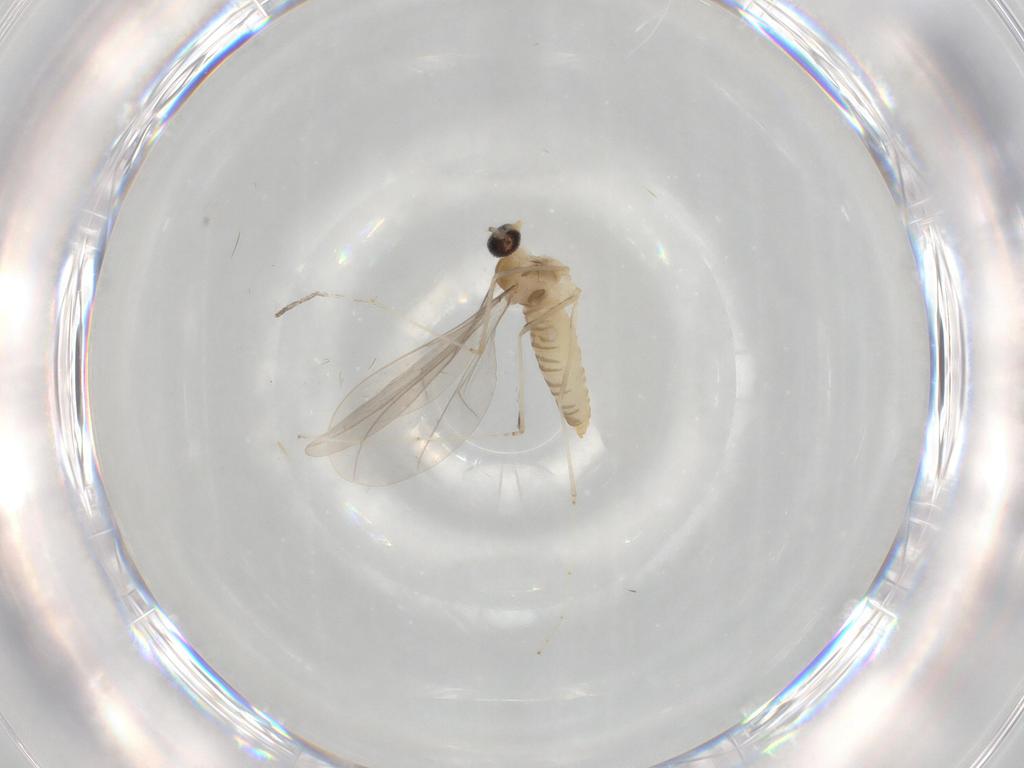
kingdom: Animalia
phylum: Arthropoda
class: Insecta
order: Diptera
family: Cecidomyiidae
